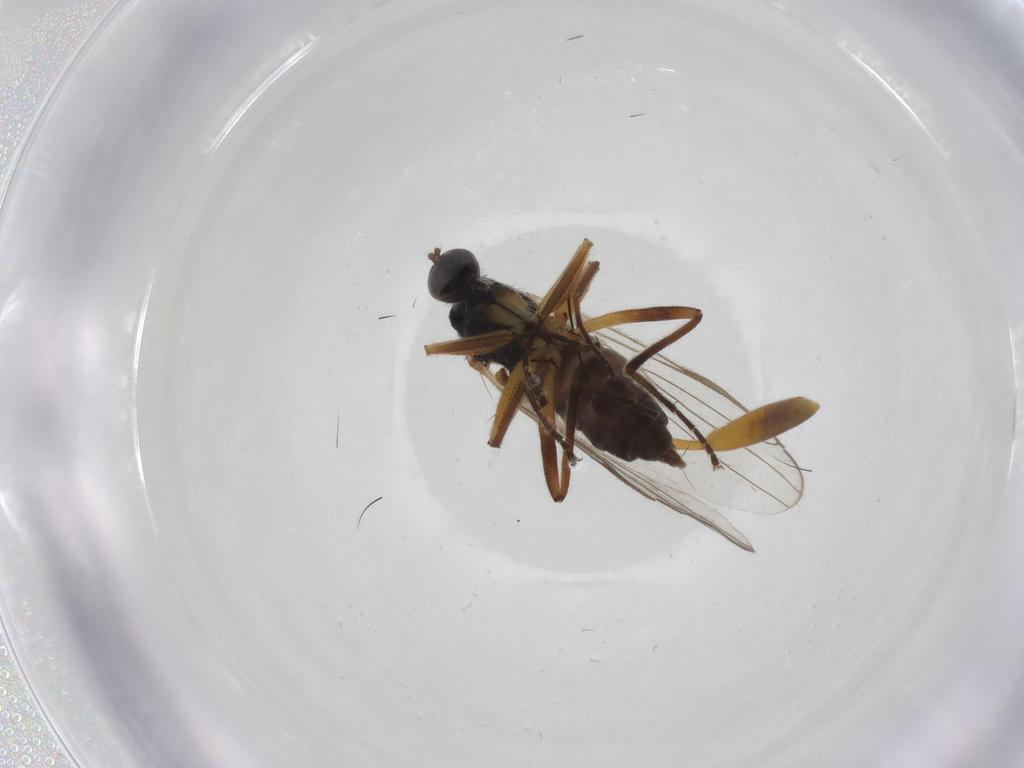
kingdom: Animalia
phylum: Arthropoda
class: Insecta
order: Diptera
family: Hybotidae
